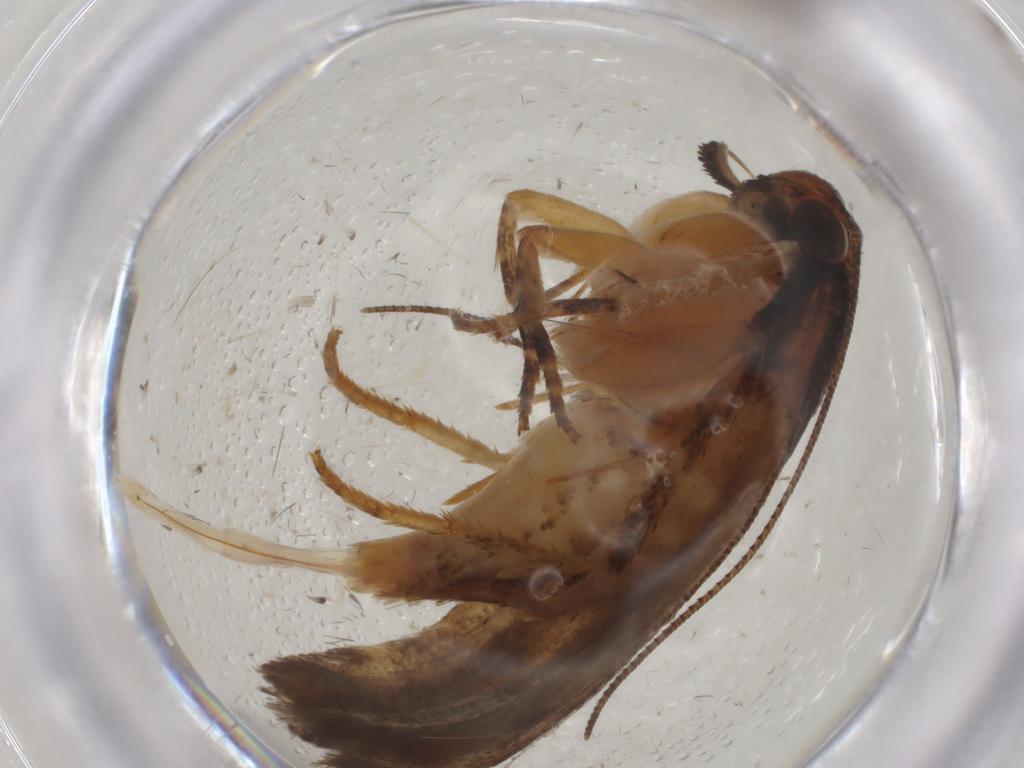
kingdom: Animalia
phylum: Arthropoda
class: Insecta
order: Lepidoptera
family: Gelechiidae
